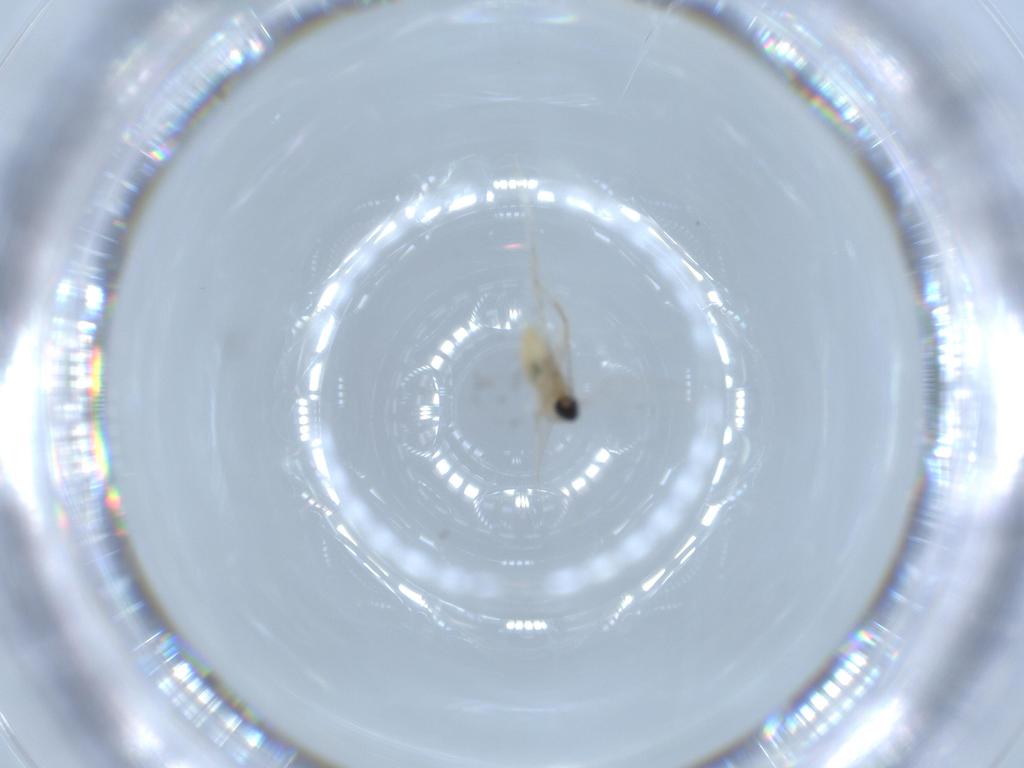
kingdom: Animalia
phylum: Arthropoda
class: Insecta
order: Diptera
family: Cecidomyiidae
